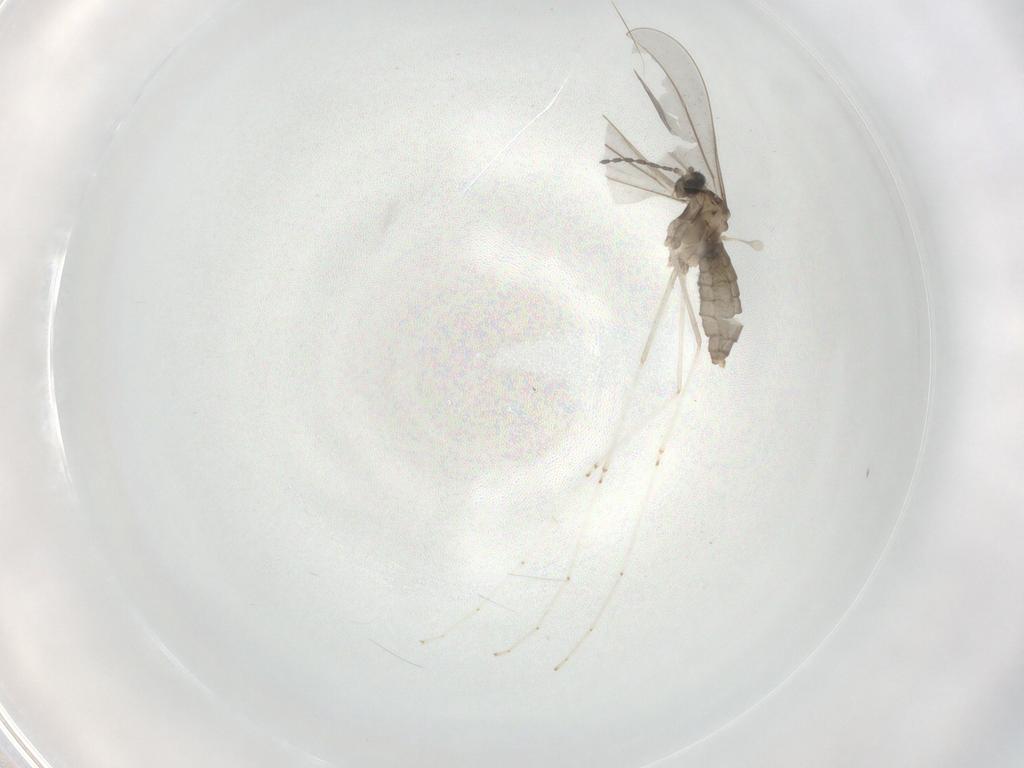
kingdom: Animalia
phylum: Arthropoda
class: Insecta
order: Diptera
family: Cecidomyiidae
